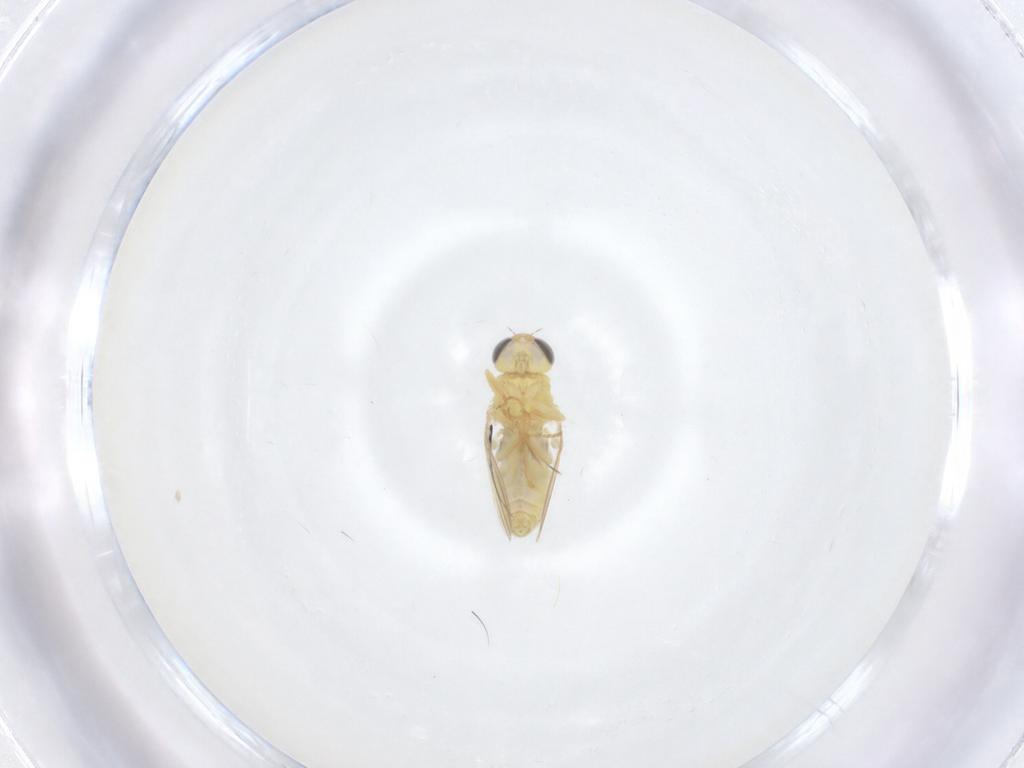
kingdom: Animalia
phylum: Arthropoda
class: Insecta
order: Diptera
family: Chyromyidae
